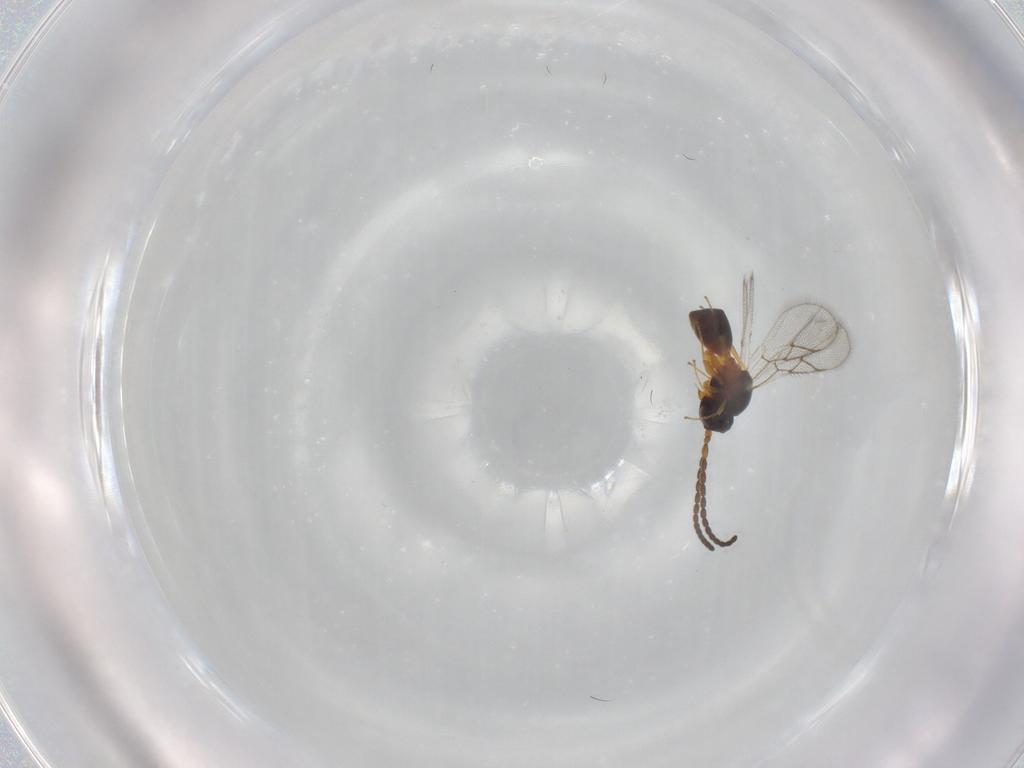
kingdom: Animalia
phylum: Arthropoda
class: Insecta
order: Hymenoptera
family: Figitidae
